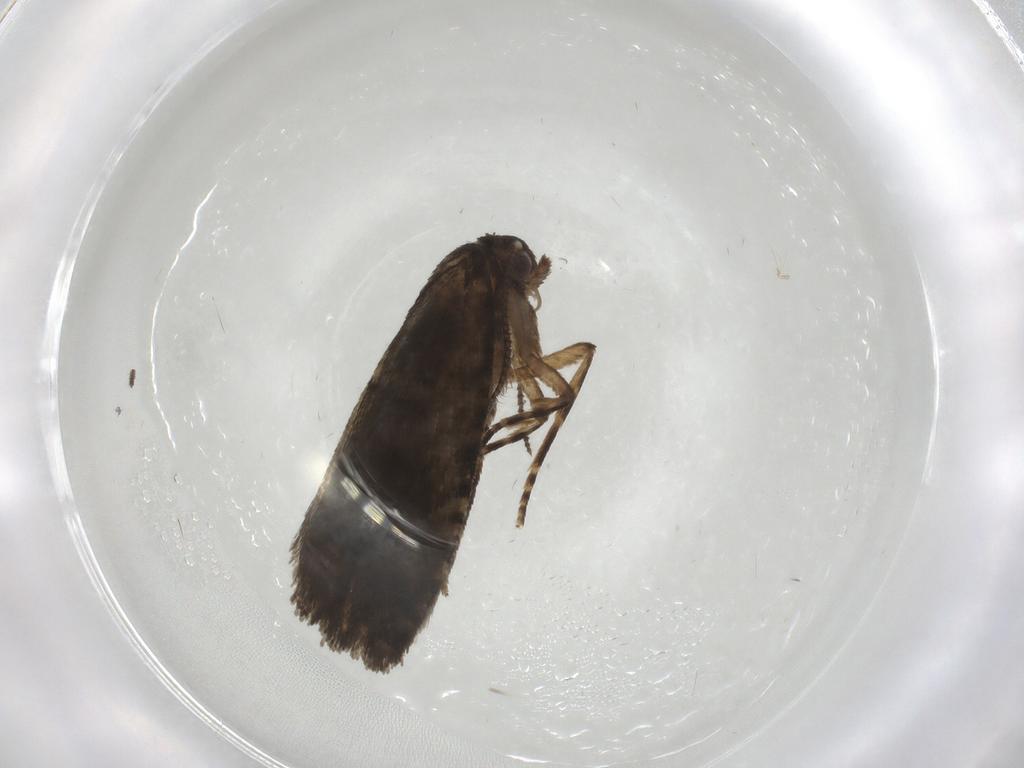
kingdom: Animalia
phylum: Arthropoda
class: Insecta
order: Lepidoptera
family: Tortricidae
